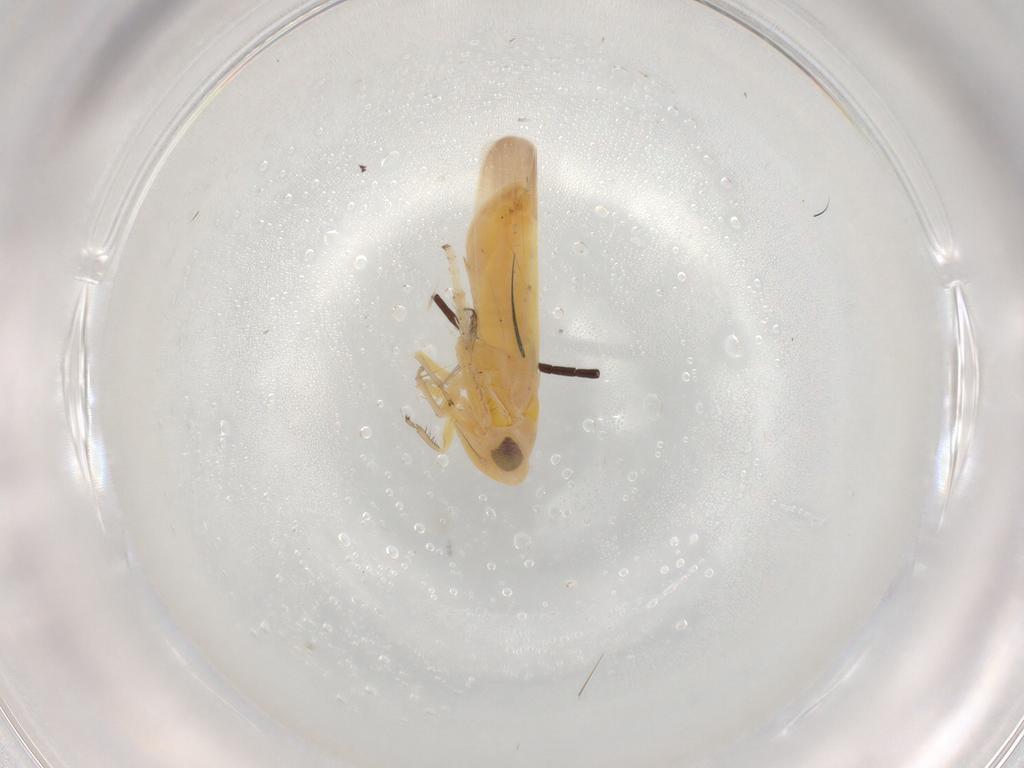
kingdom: Animalia
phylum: Arthropoda
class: Insecta
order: Hemiptera
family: Cicadellidae
